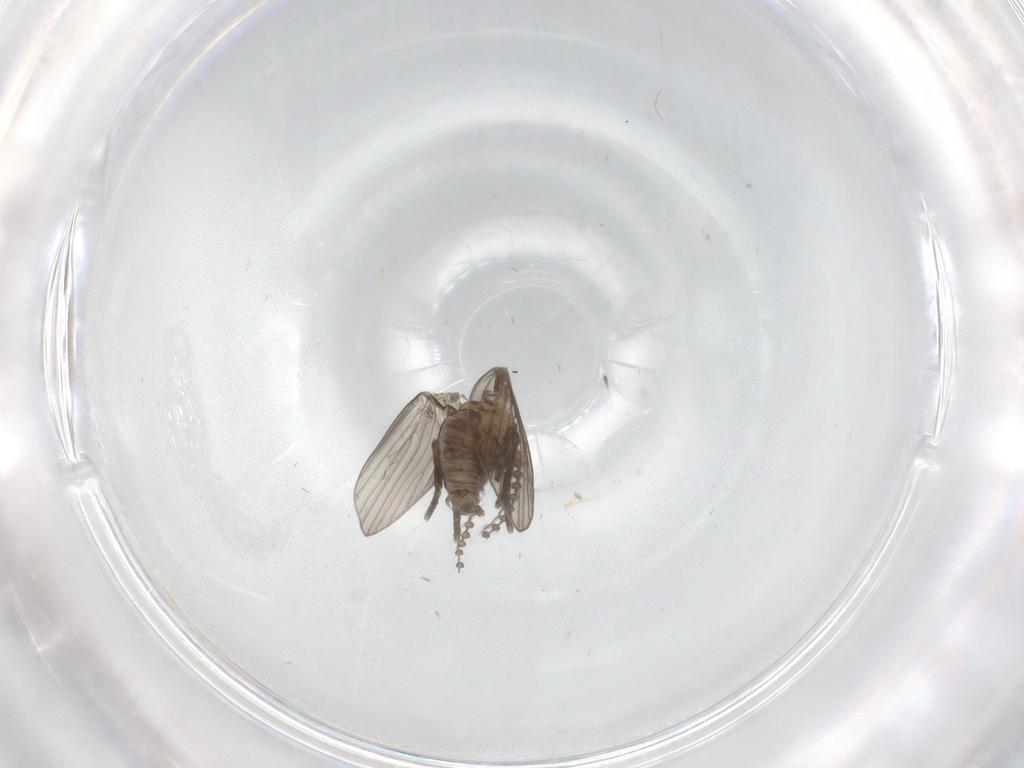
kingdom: Animalia
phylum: Arthropoda
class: Insecta
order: Diptera
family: Psychodidae
